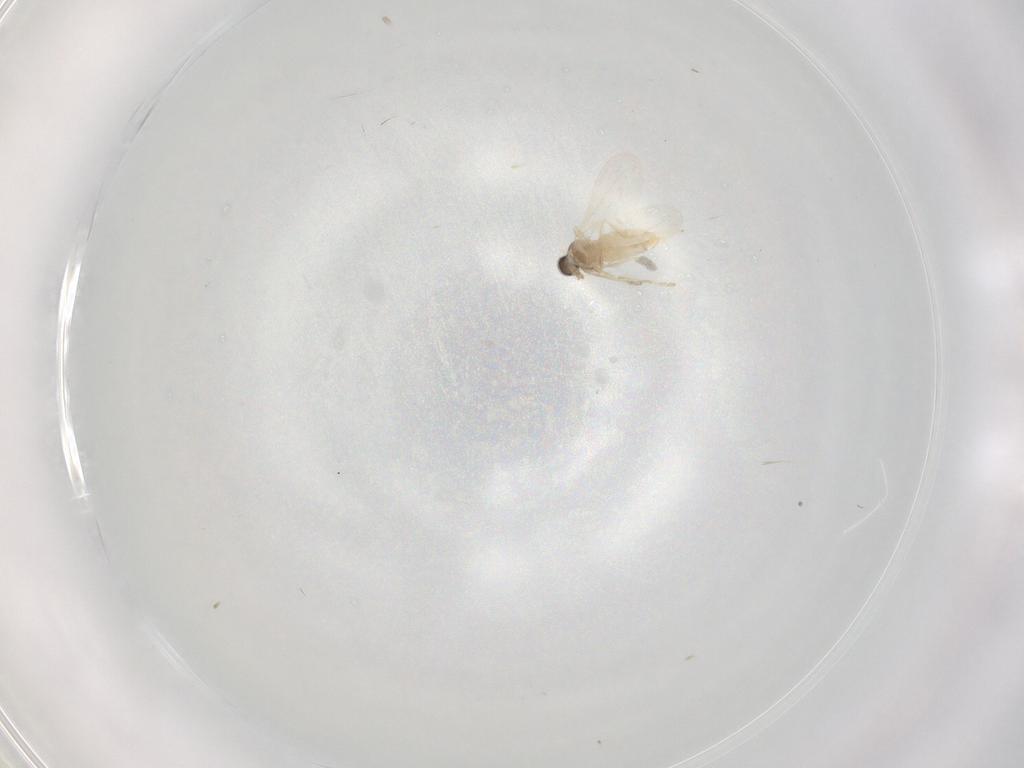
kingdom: Animalia
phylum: Arthropoda
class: Insecta
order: Diptera
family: Cecidomyiidae
